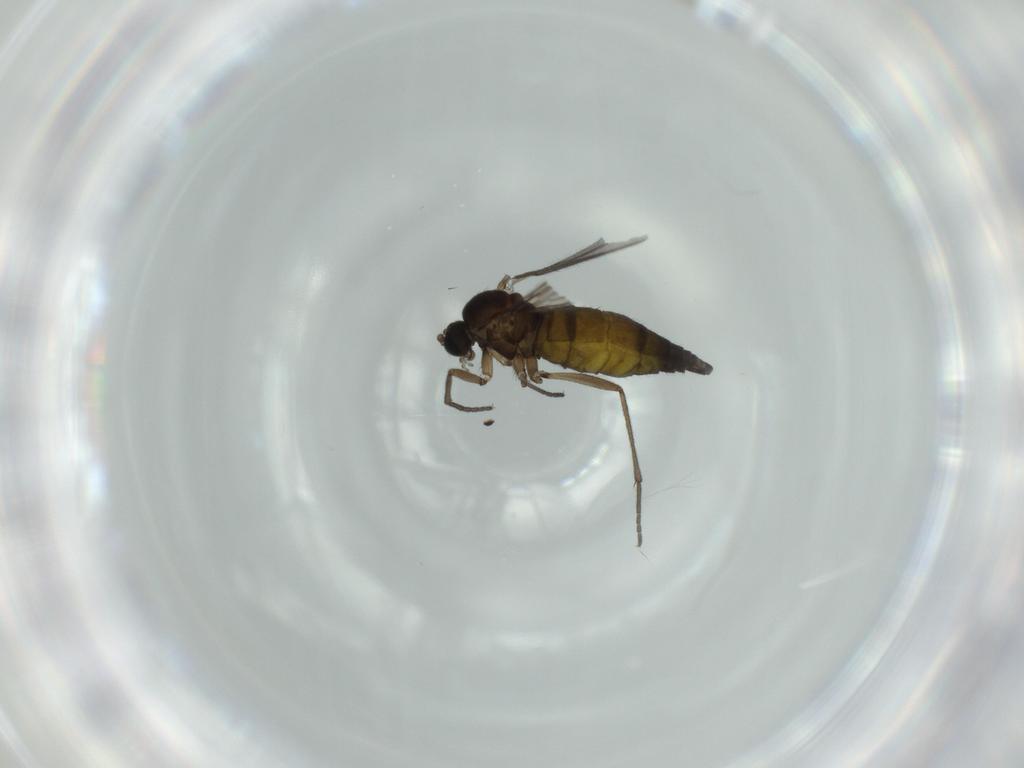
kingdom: Animalia
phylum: Arthropoda
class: Insecta
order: Diptera
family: Sciaridae
